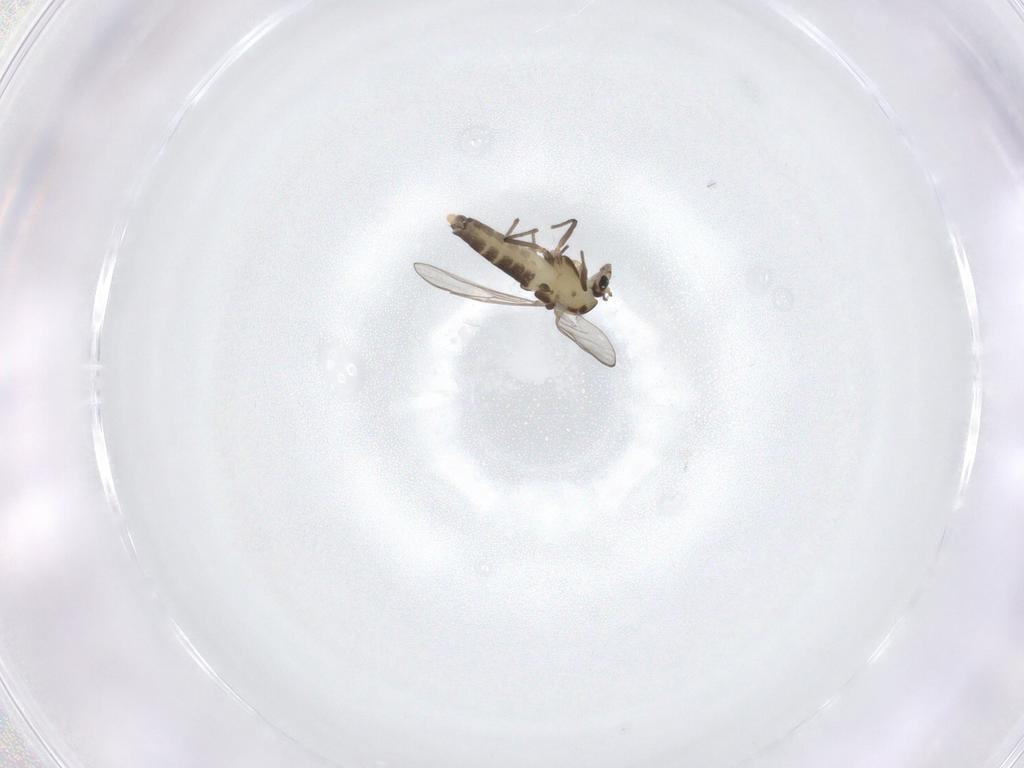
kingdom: Animalia
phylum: Arthropoda
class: Insecta
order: Diptera
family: Chironomidae
